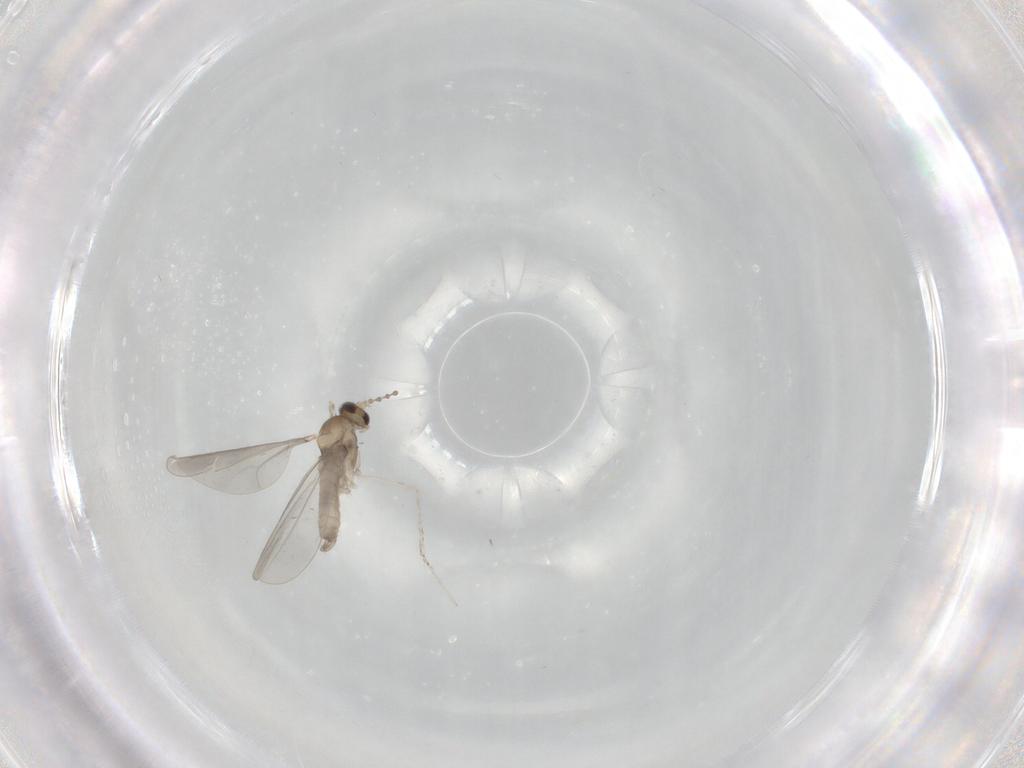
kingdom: Animalia
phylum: Arthropoda
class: Insecta
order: Diptera
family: Cecidomyiidae
